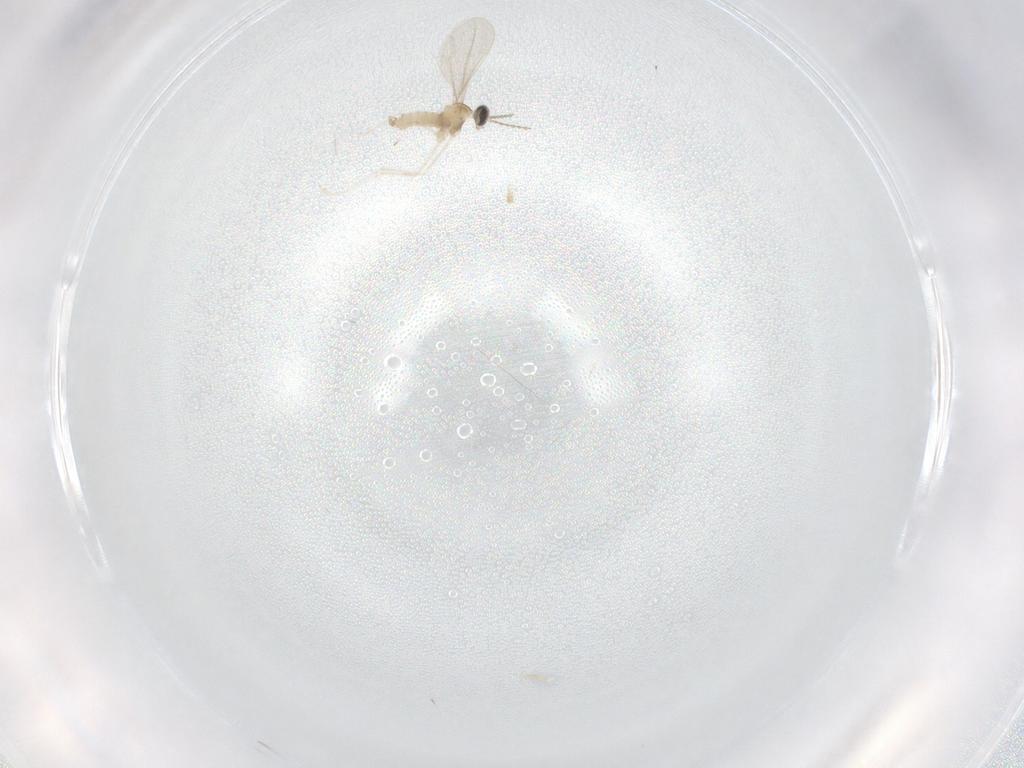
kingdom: Animalia
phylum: Arthropoda
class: Insecta
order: Diptera
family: Cecidomyiidae
